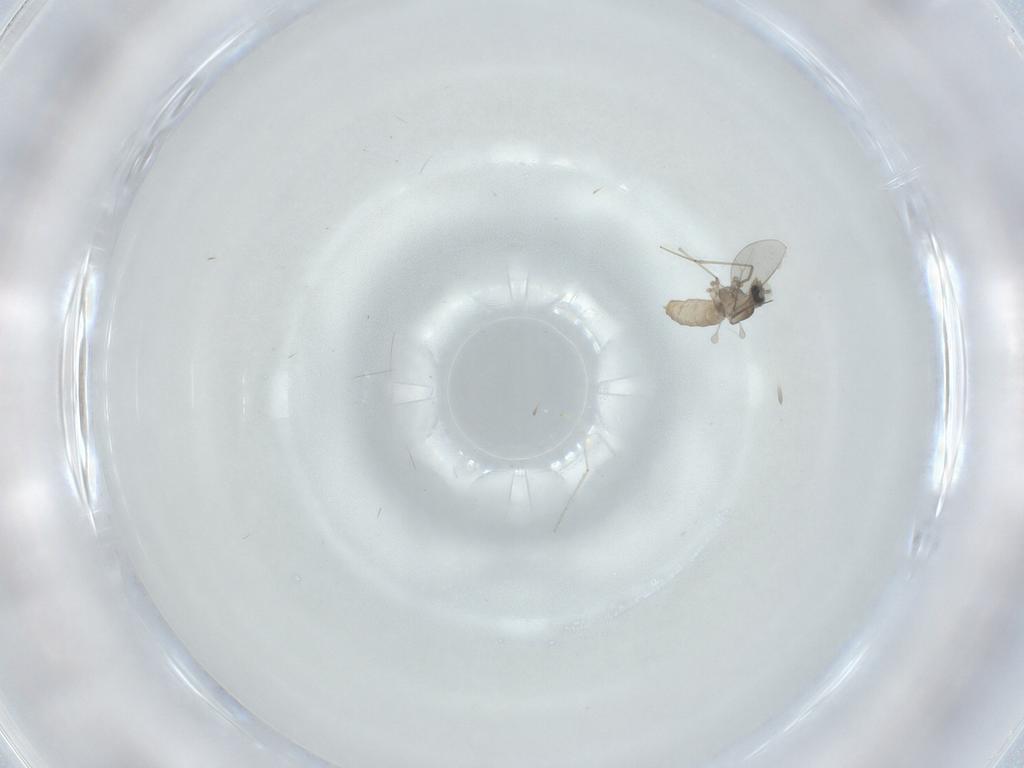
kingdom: Animalia
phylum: Arthropoda
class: Insecta
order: Diptera
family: Cecidomyiidae
